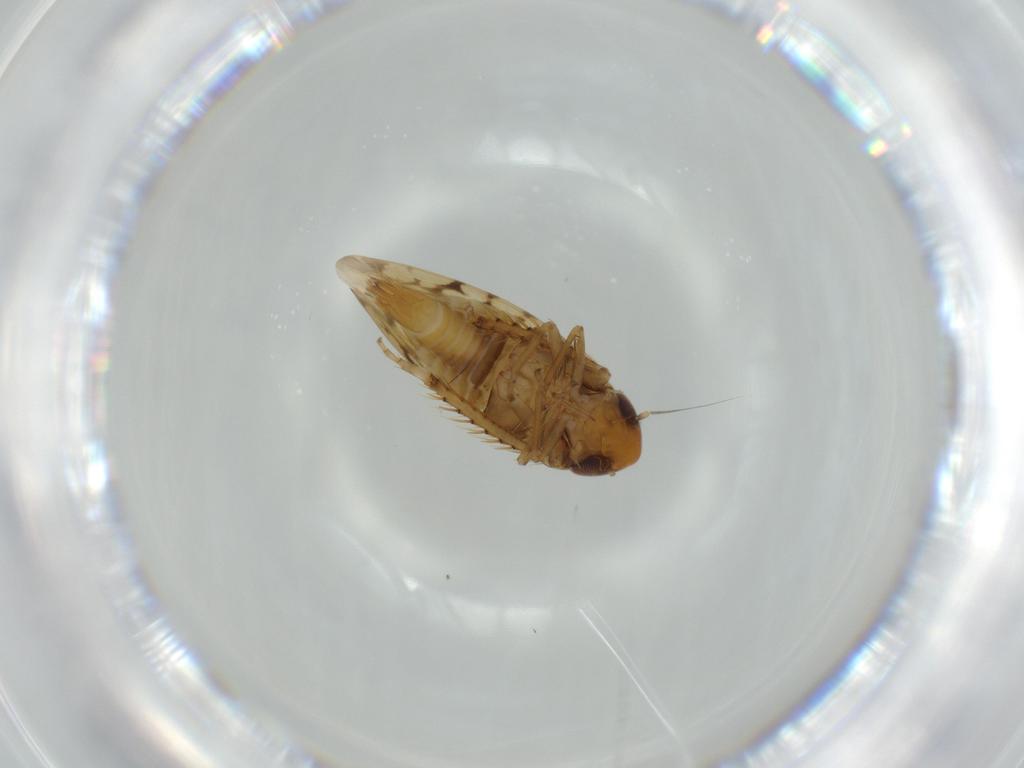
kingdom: Animalia
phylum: Arthropoda
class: Insecta
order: Hemiptera
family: Cicadellidae
